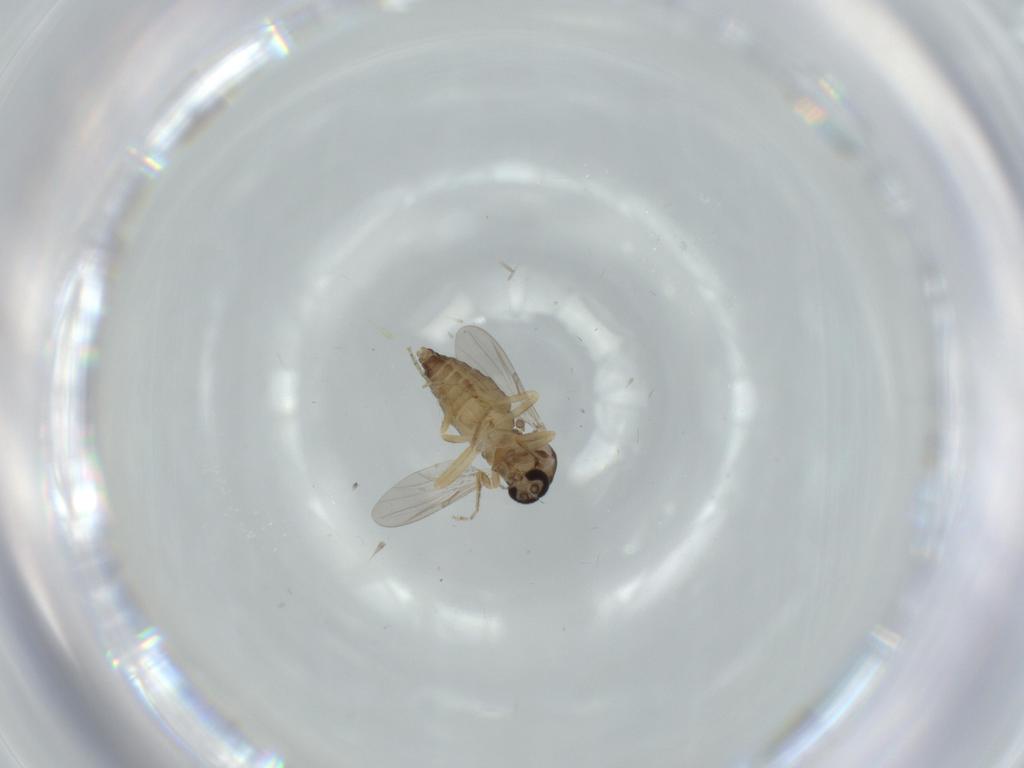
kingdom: Animalia
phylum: Arthropoda
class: Insecta
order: Diptera
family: Ceratopogonidae
